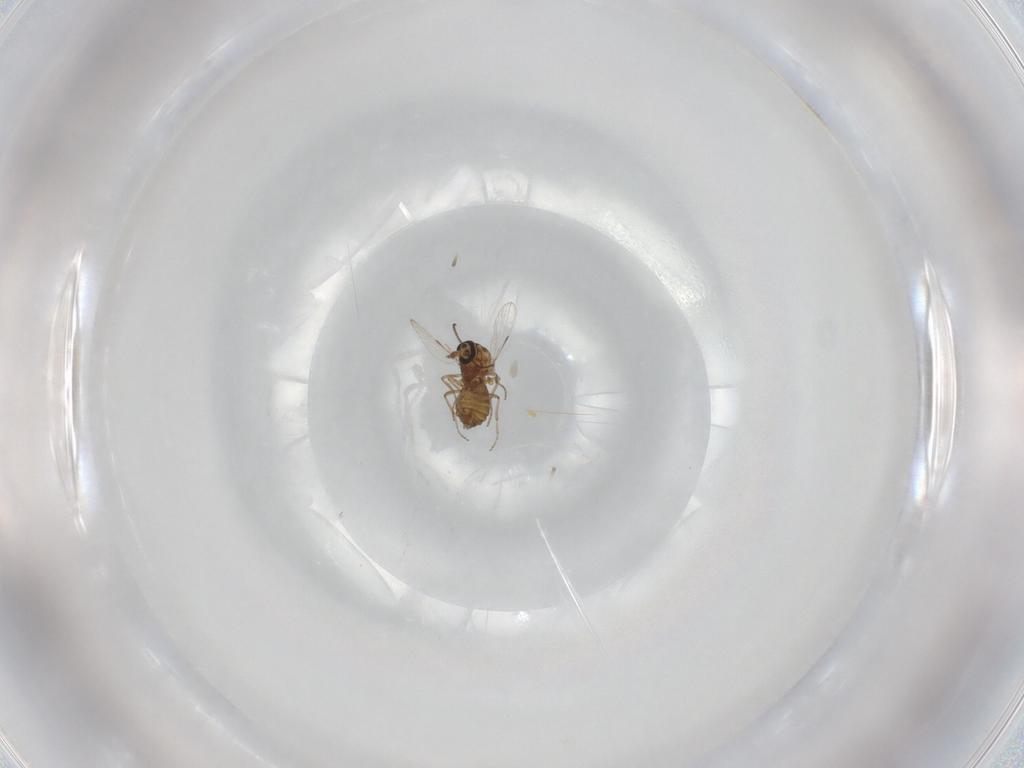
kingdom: Animalia
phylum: Arthropoda
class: Insecta
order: Diptera
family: Ceratopogonidae
